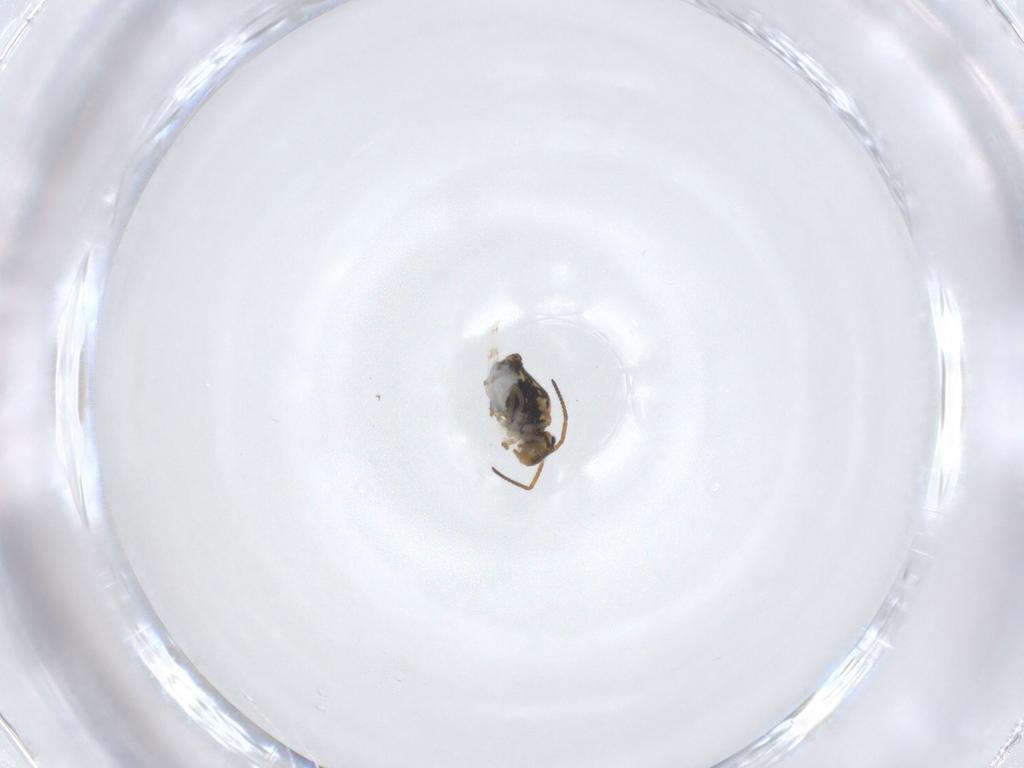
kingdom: Animalia
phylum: Arthropoda
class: Collembola
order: Symphypleona
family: Katiannidae
